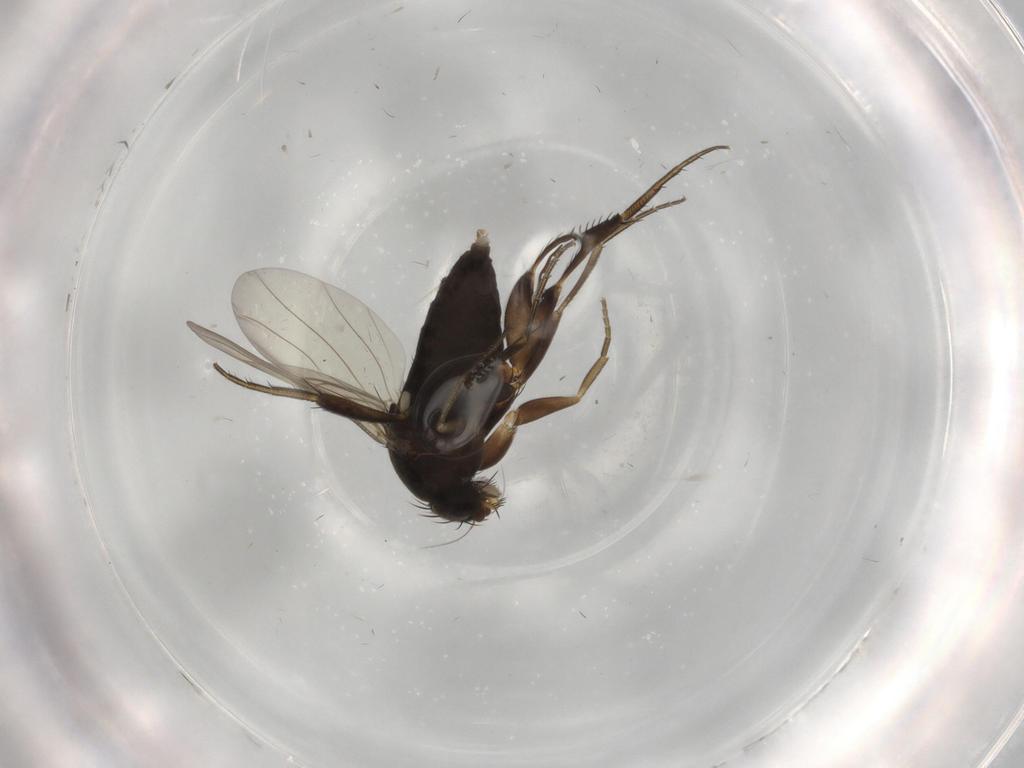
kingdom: Animalia
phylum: Arthropoda
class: Insecta
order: Diptera
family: Phoridae
